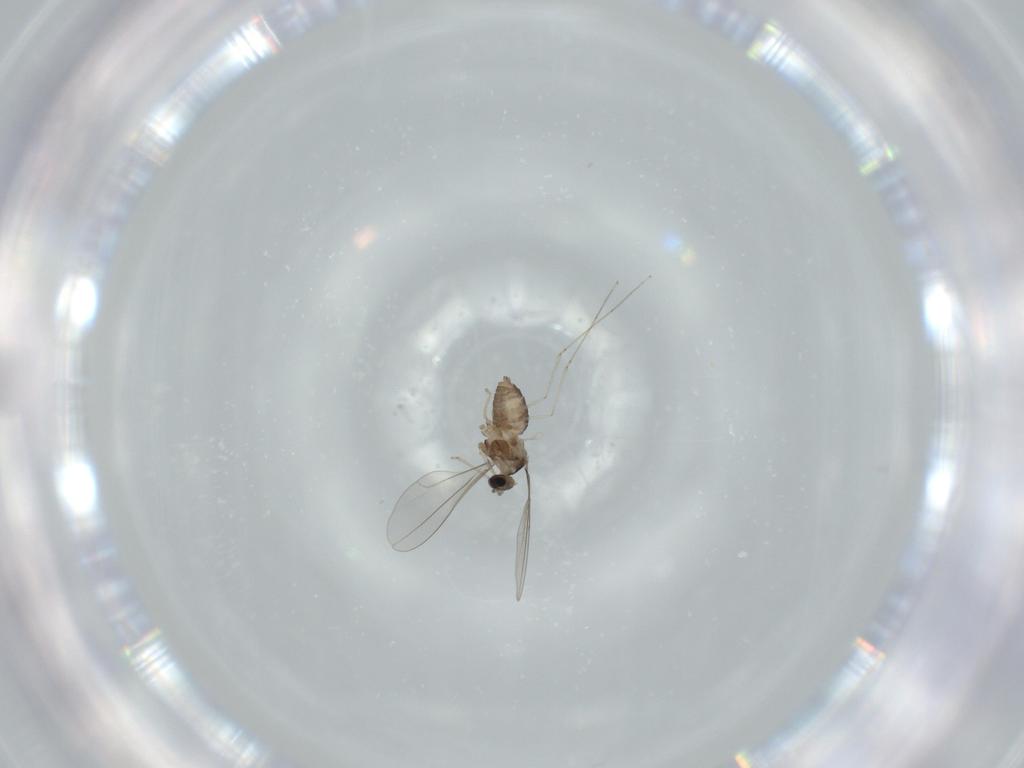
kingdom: Animalia
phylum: Arthropoda
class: Insecta
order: Diptera
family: Cecidomyiidae
